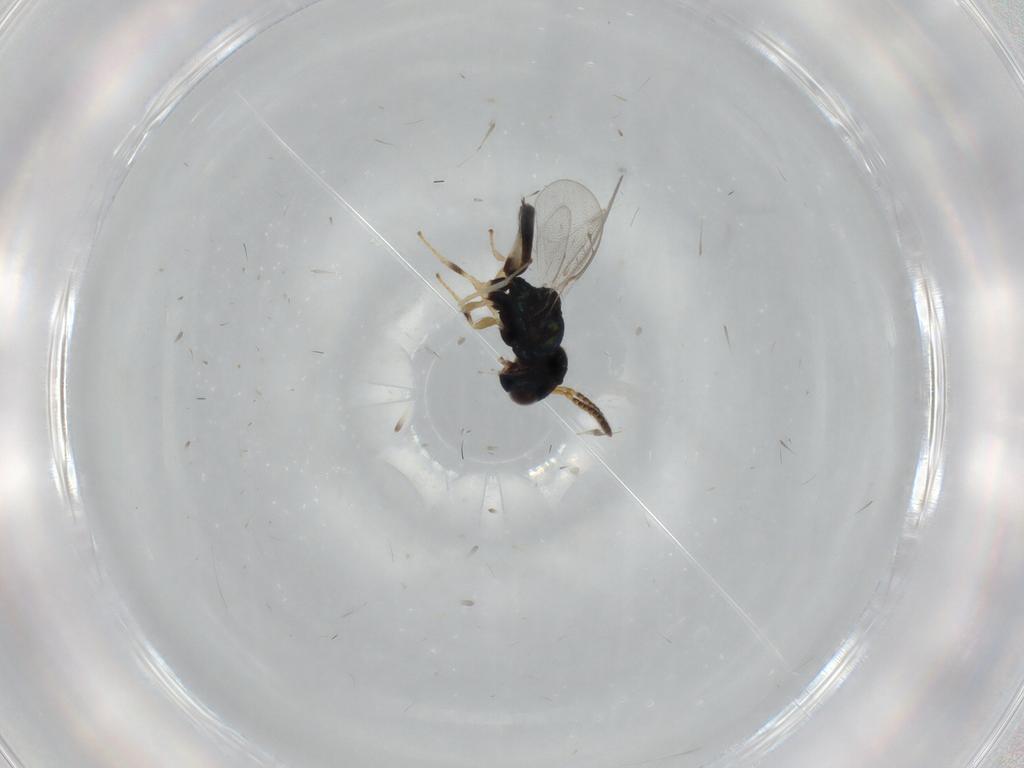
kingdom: Animalia
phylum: Arthropoda
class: Insecta
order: Hymenoptera
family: Pteromalidae
